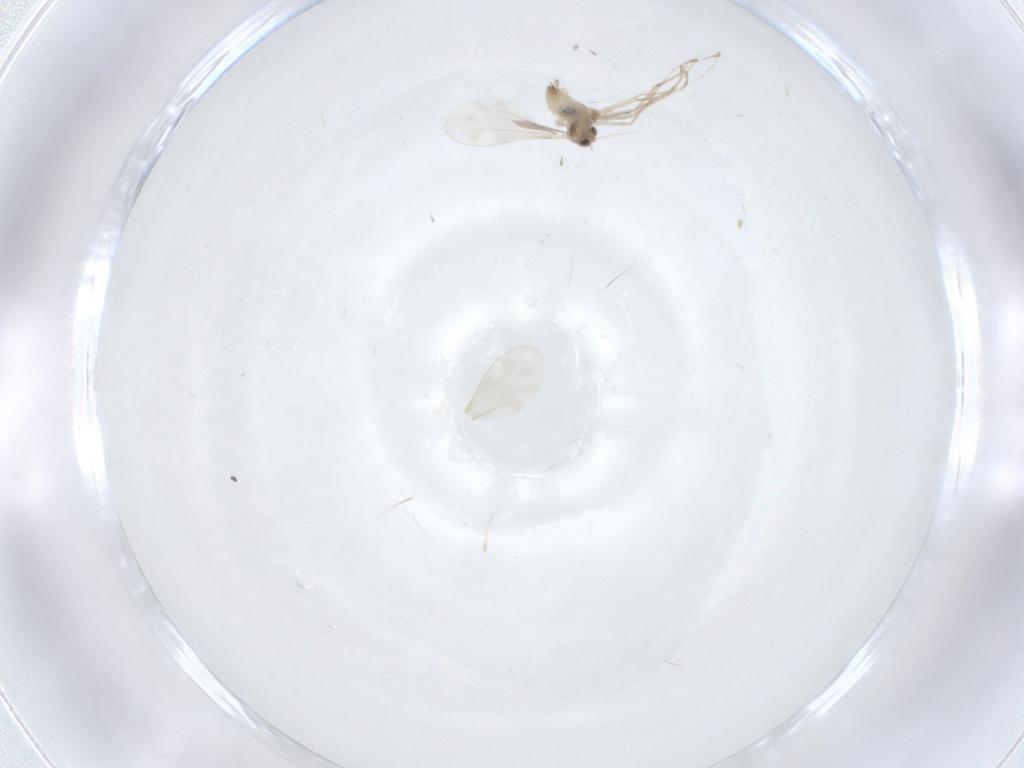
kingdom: Animalia
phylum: Arthropoda
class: Insecta
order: Diptera
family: Cecidomyiidae
